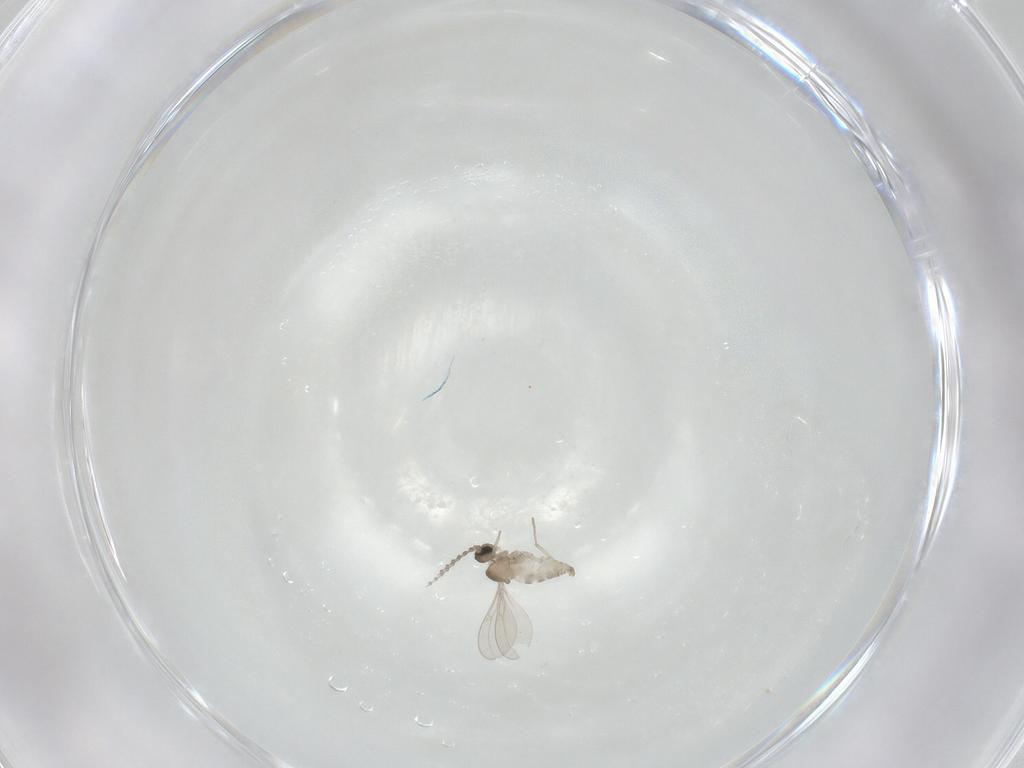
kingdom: Animalia
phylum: Arthropoda
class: Insecta
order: Diptera
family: Cecidomyiidae
